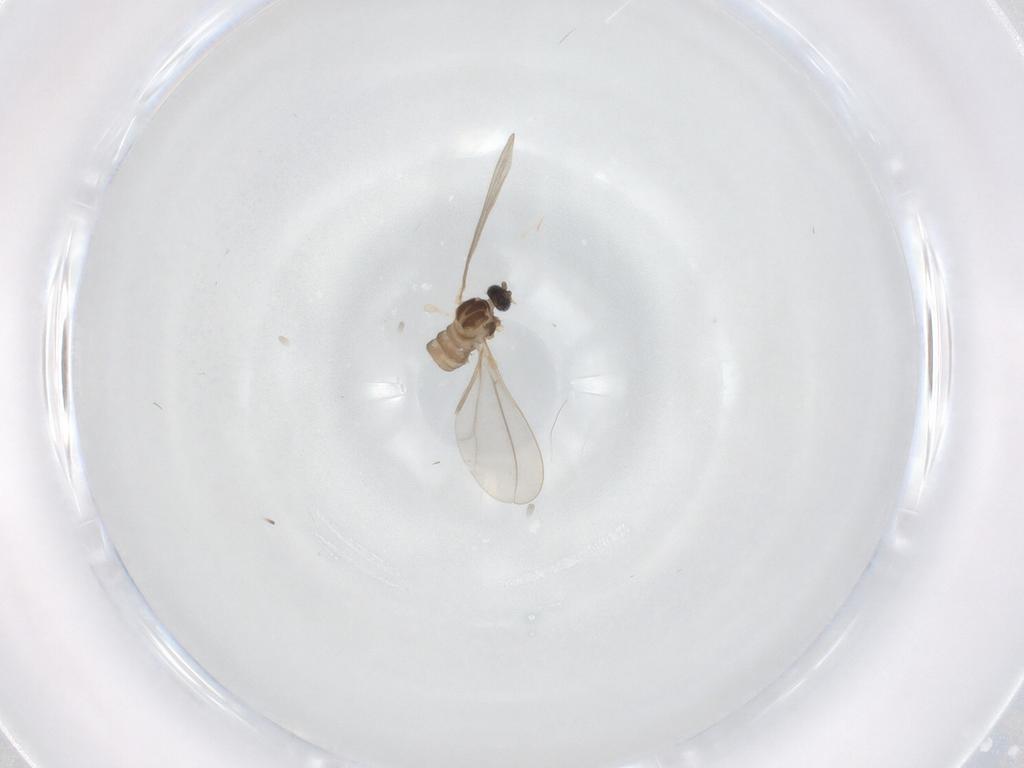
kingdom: Animalia
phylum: Arthropoda
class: Insecta
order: Diptera
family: Cecidomyiidae
